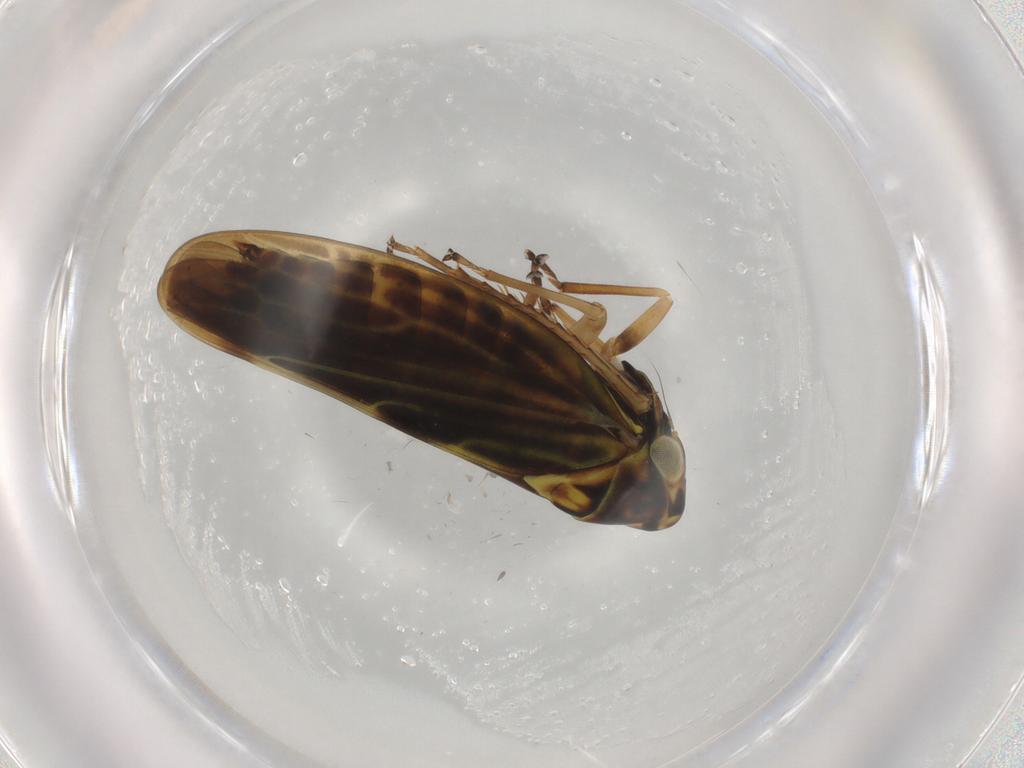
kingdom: Animalia
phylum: Arthropoda
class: Insecta
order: Hemiptera
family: Cicadellidae
